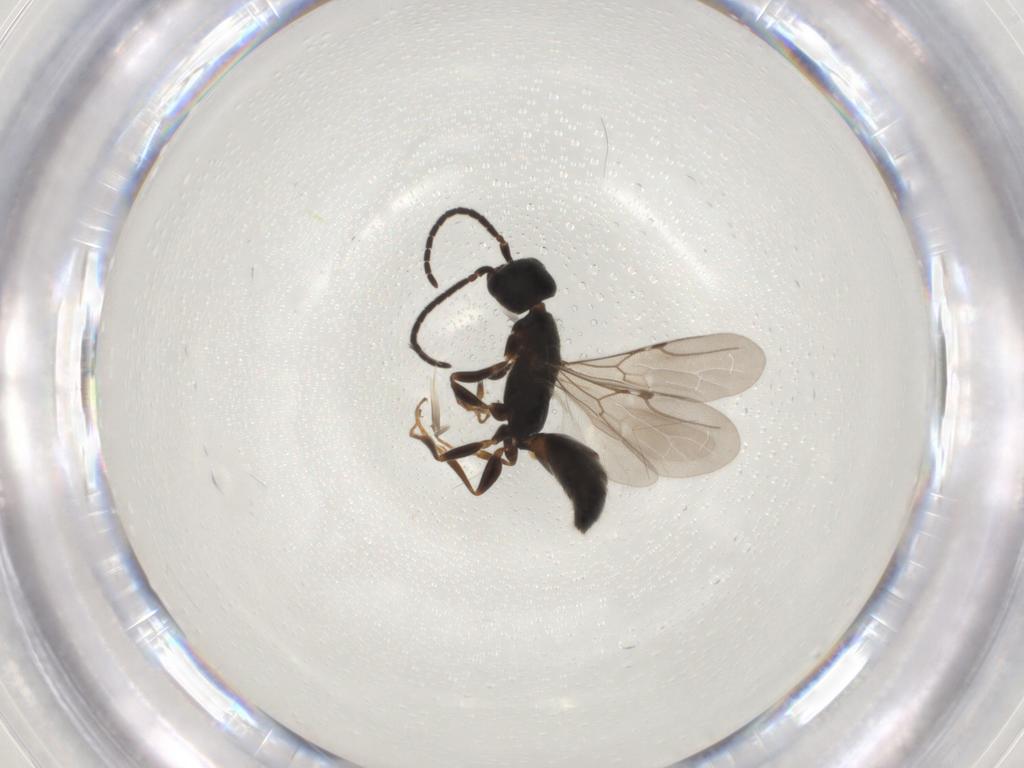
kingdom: Animalia
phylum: Arthropoda
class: Insecta
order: Hymenoptera
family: Bethylidae
